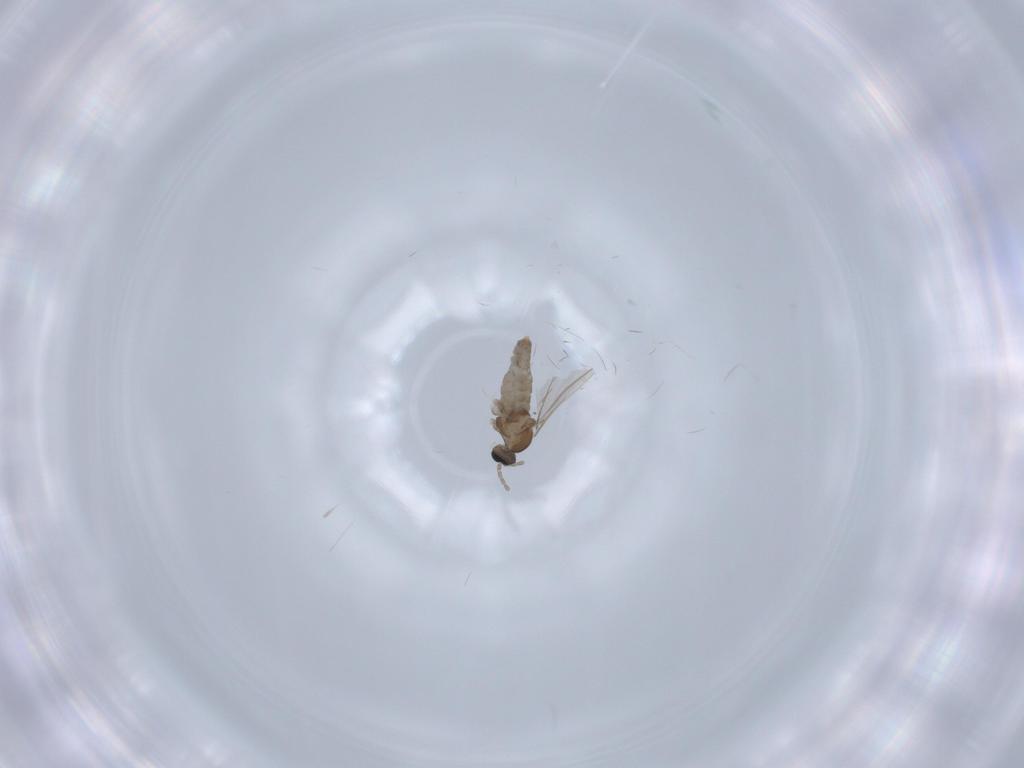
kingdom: Animalia
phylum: Arthropoda
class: Insecta
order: Diptera
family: Cecidomyiidae
